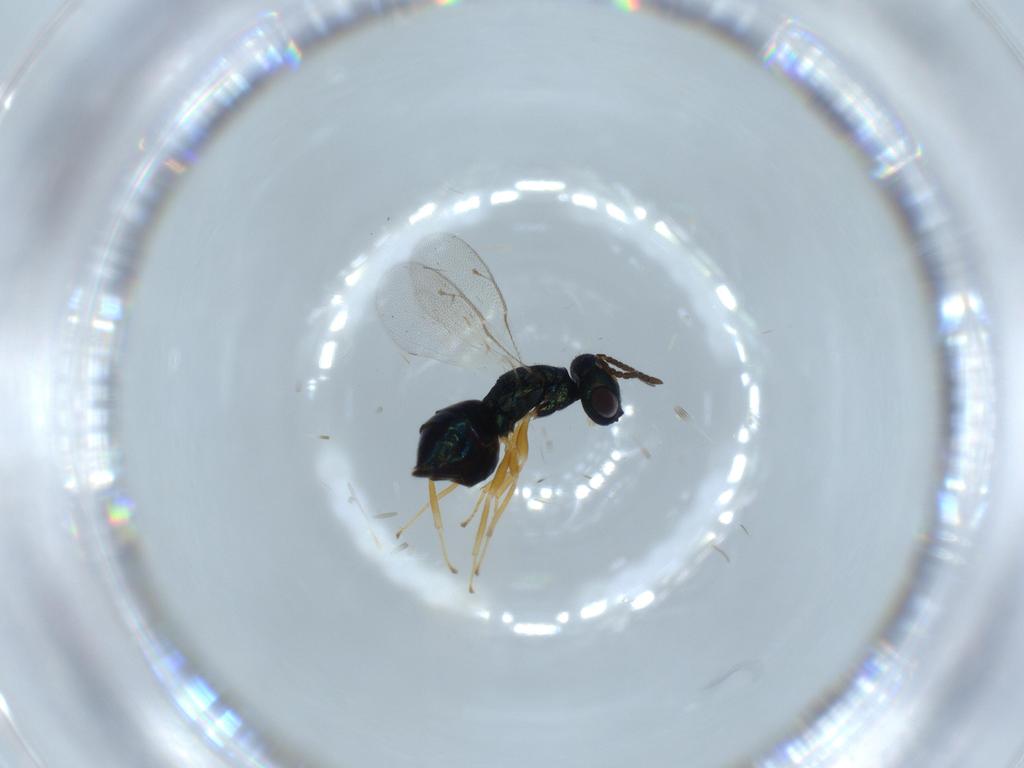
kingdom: Animalia
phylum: Arthropoda
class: Insecta
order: Hymenoptera
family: Pteromalidae
